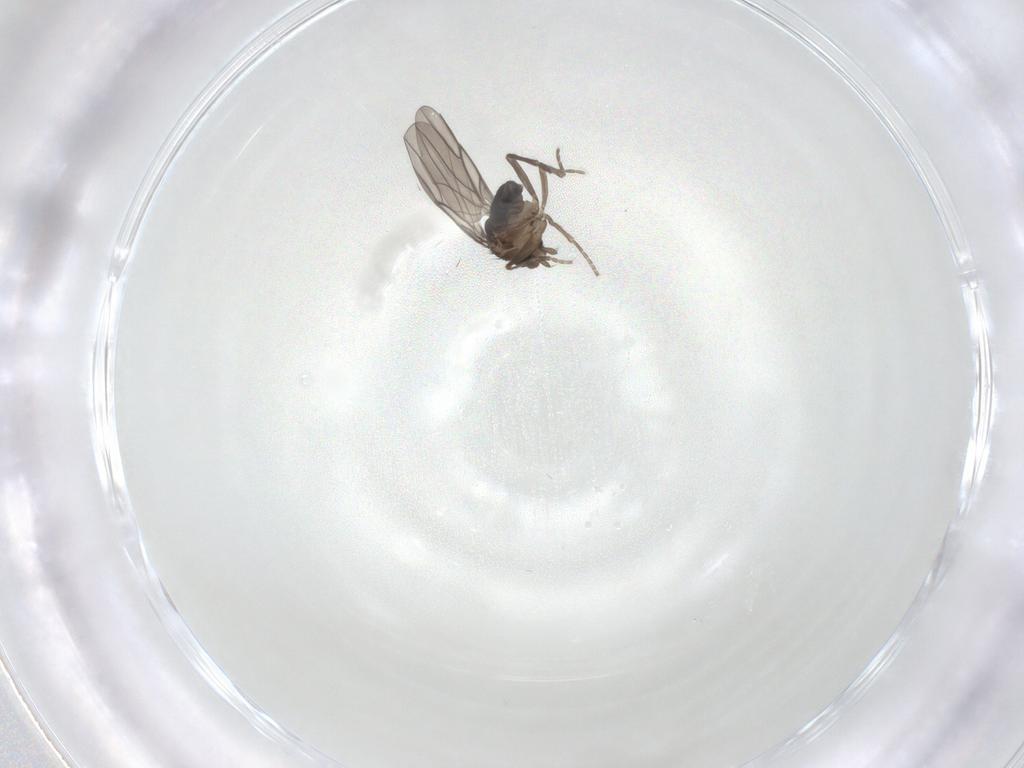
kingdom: Animalia
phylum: Arthropoda
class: Insecta
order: Diptera
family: Phoridae
